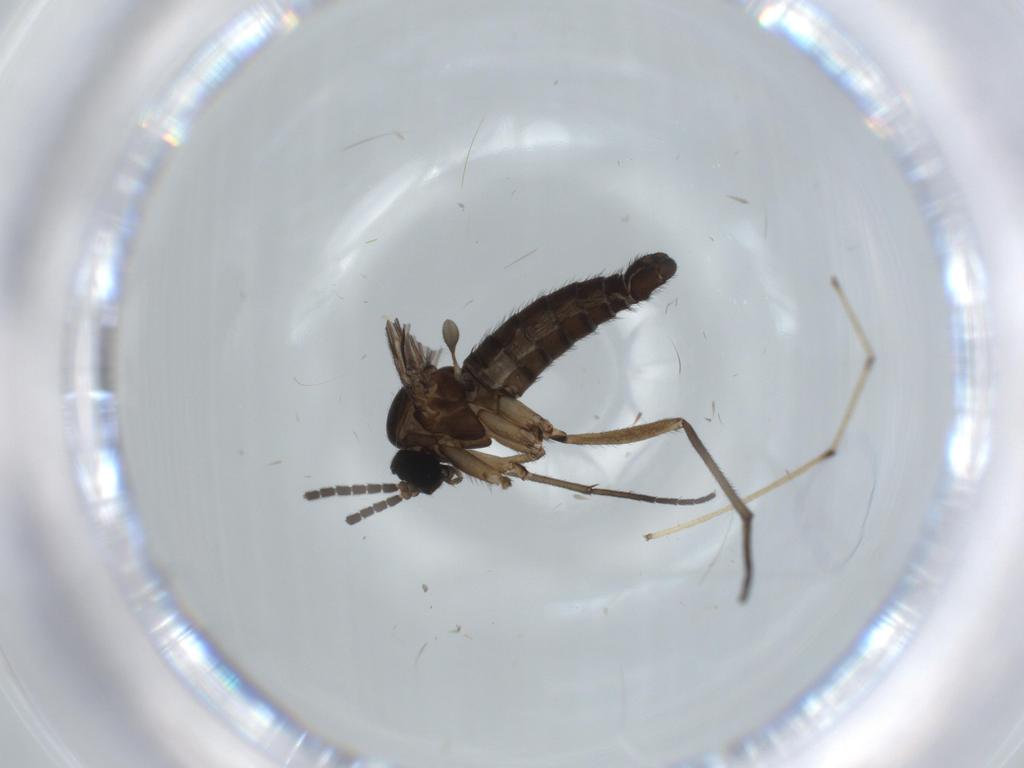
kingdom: Animalia
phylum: Arthropoda
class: Insecta
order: Diptera
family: Sciaridae
